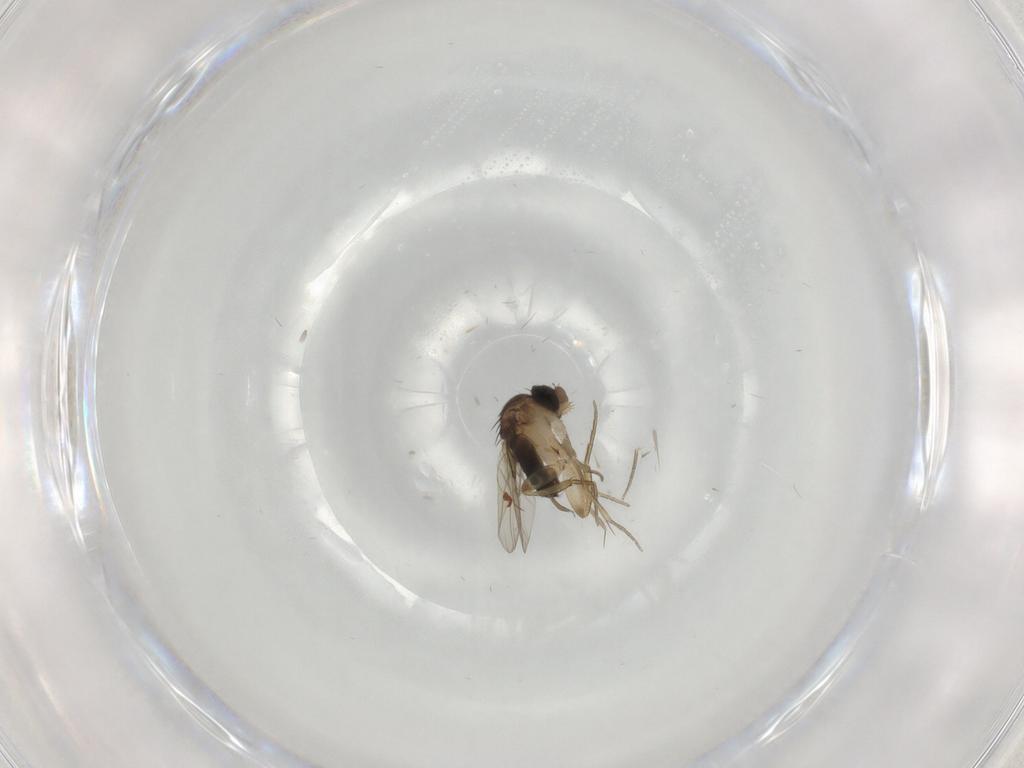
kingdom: Animalia
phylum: Arthropoda
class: Insecta
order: Diptera
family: Phoridae
